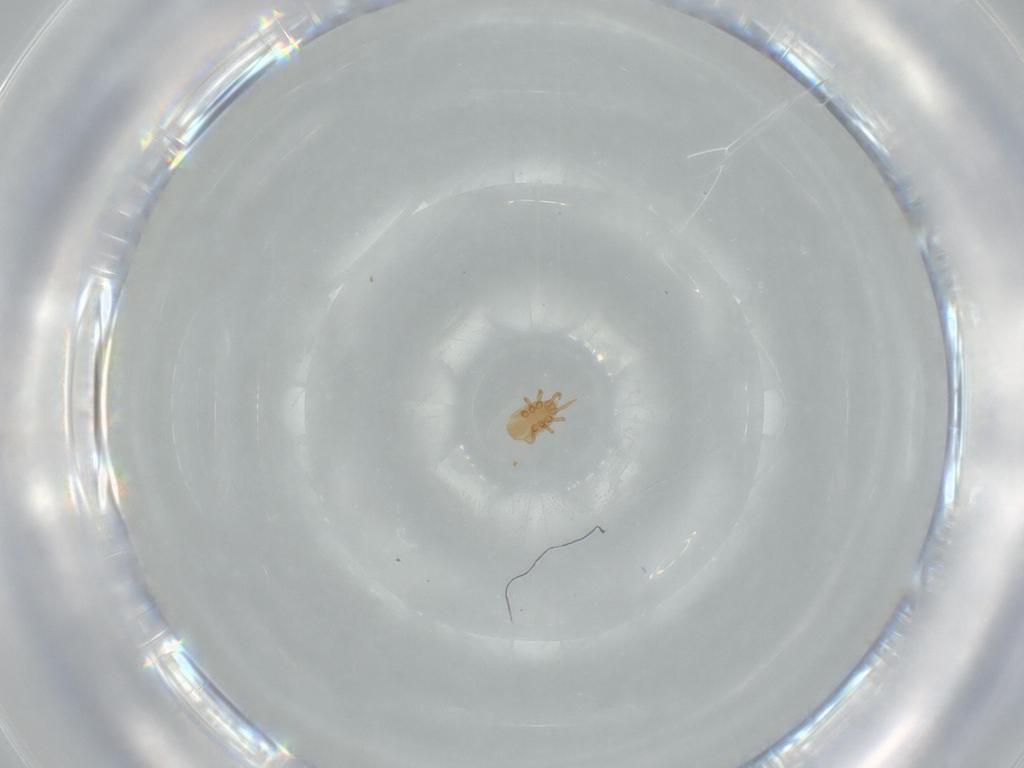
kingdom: Animalia
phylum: Arthropoda
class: Arachnida
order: Mesostigmata
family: Dinychidae
